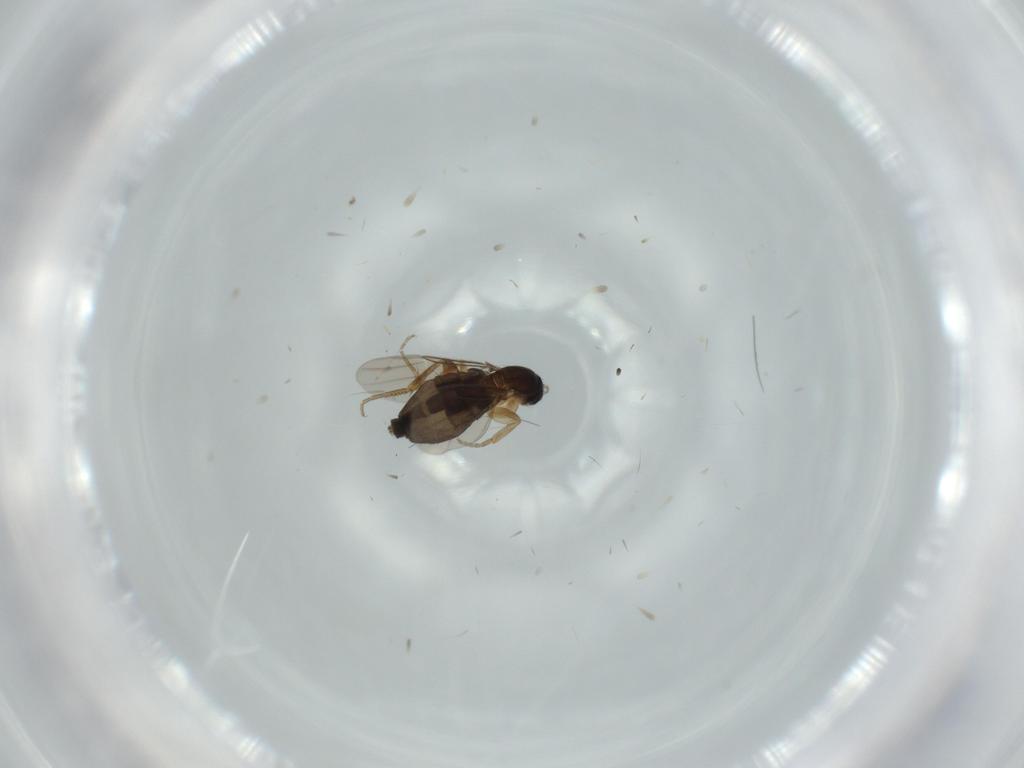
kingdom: Animalia
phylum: Arthropoda
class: Insecta
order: Diptera
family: Phoridae
